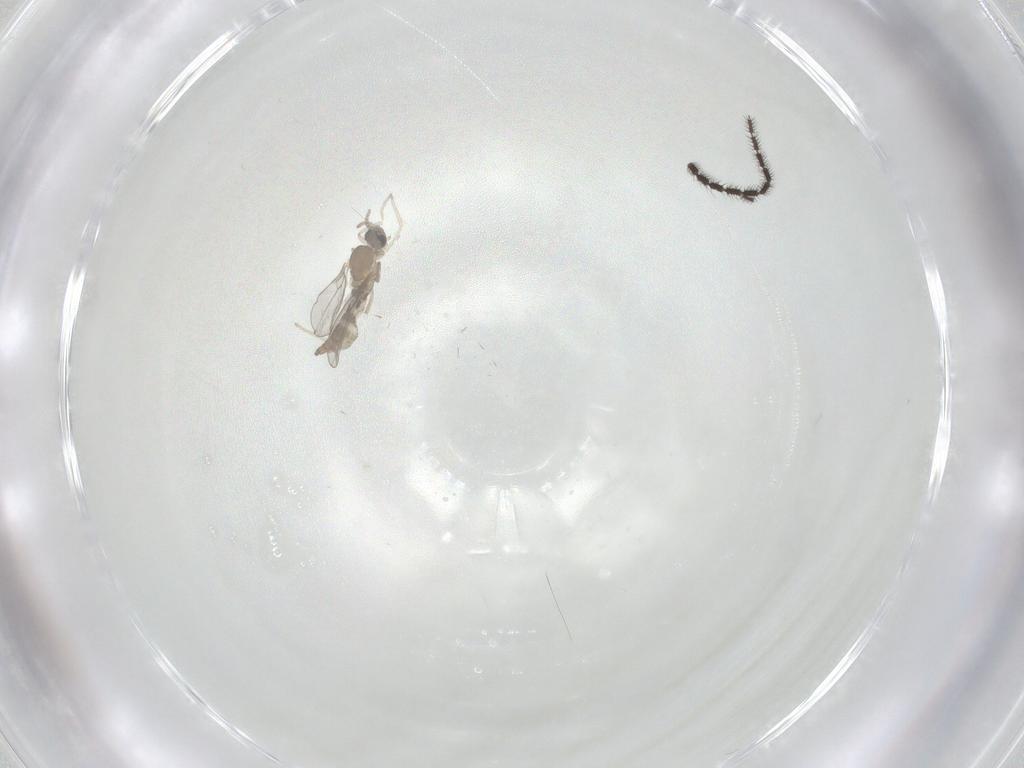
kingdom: Animalia
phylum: Arthropoda
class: Insecta
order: Diptera
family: Cecidomyiidae
